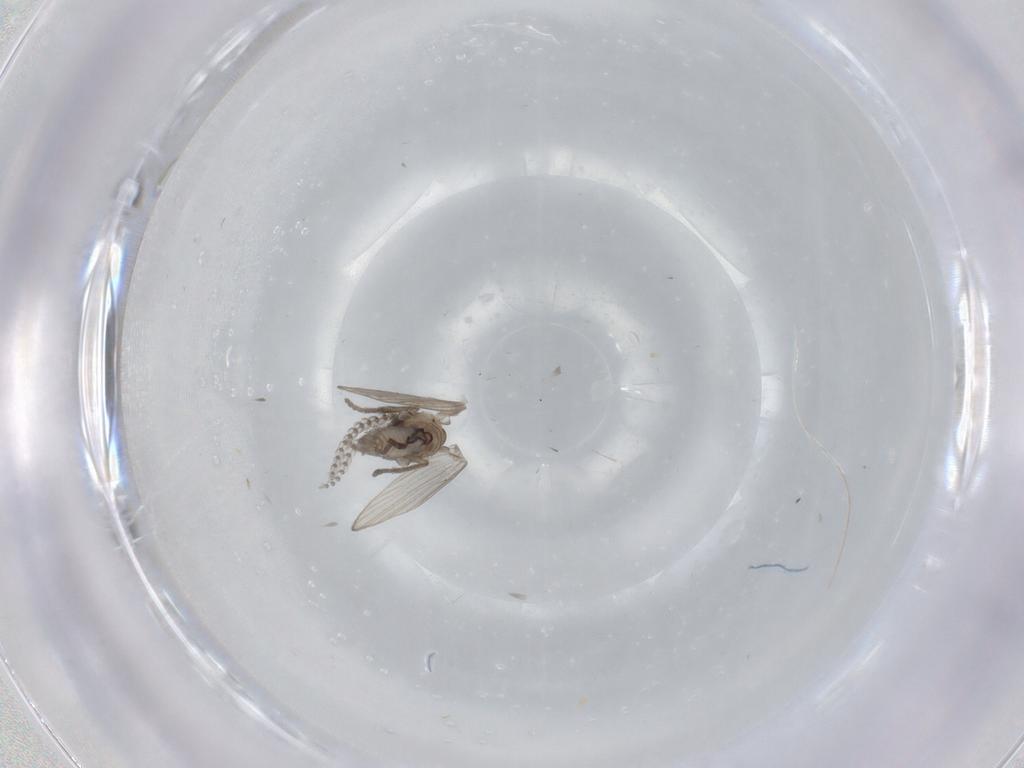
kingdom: Animalia
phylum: Arthropoda
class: Insecta
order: Diptera
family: Psychodidae
